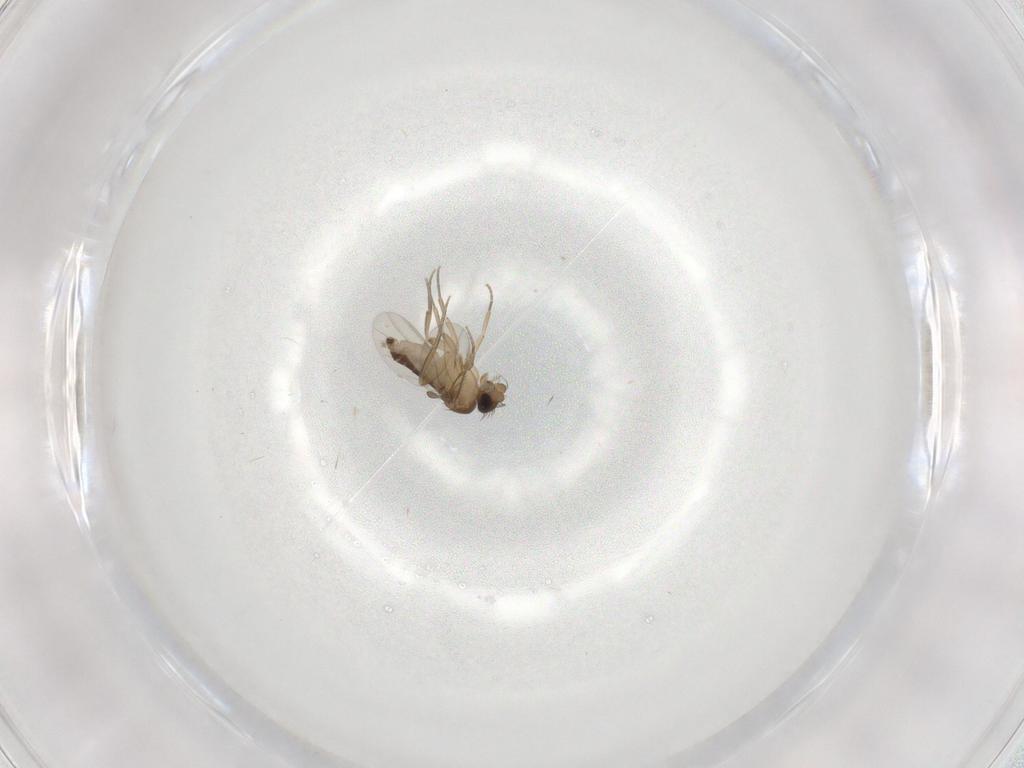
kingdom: Animalia
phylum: Arthropoda
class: Insecta
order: Diptera
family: Phoridae
